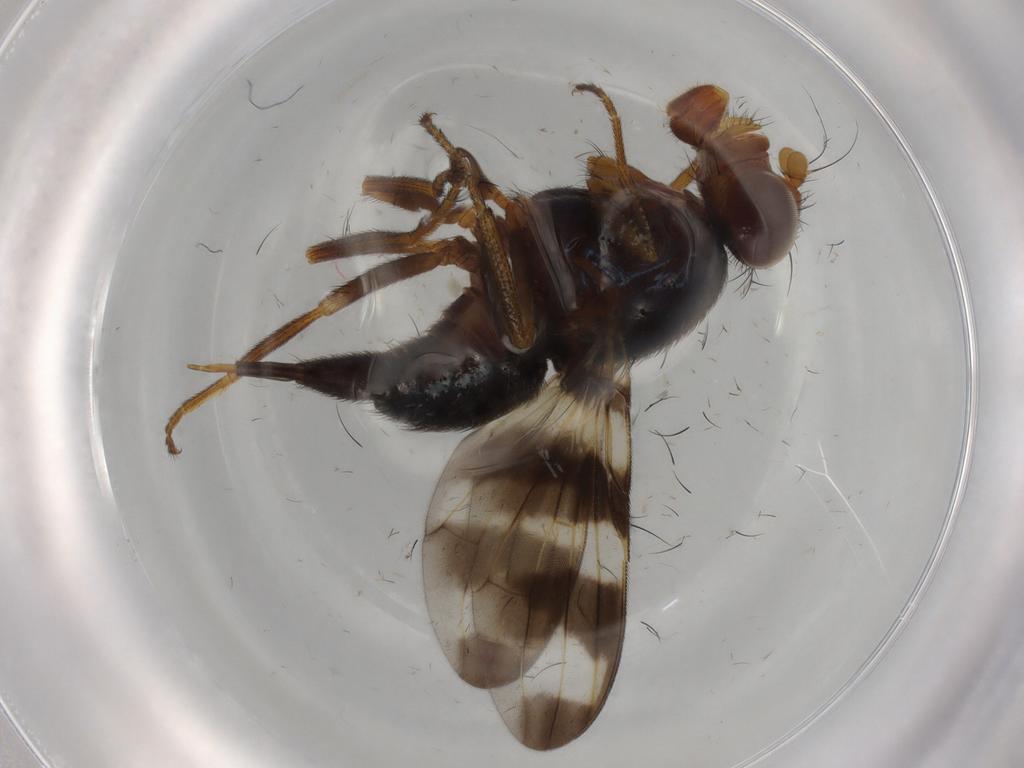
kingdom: Animalia
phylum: Arthropoda
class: Insecta
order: Diptera
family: Ceratopogonidae
